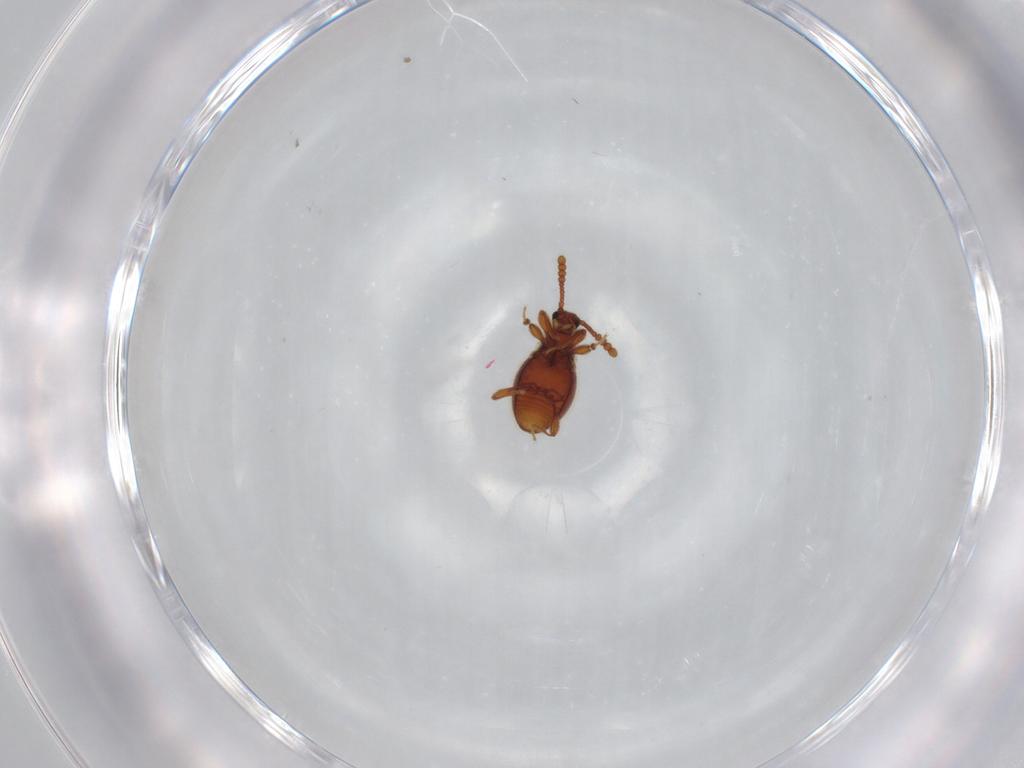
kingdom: Animalia
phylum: Arthropoda
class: Insecta
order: Coleoptera
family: Staphylinidae
